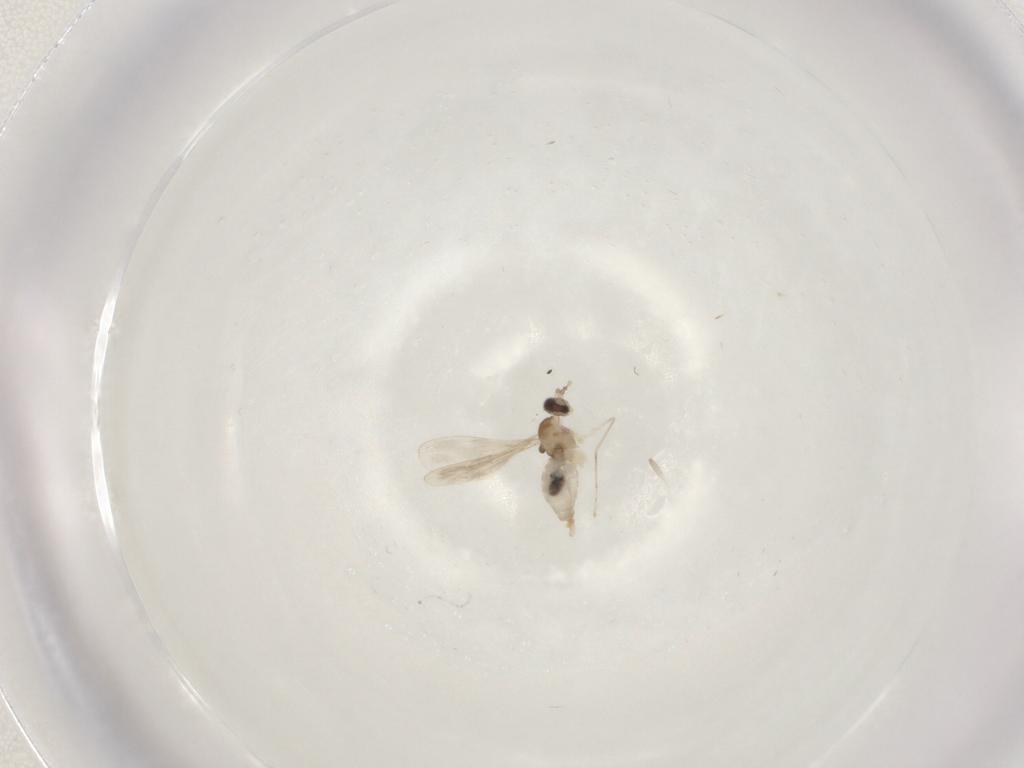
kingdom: Animalia
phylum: Arthropoda
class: Insecta
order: Diptera
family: Cecidomyiidae
